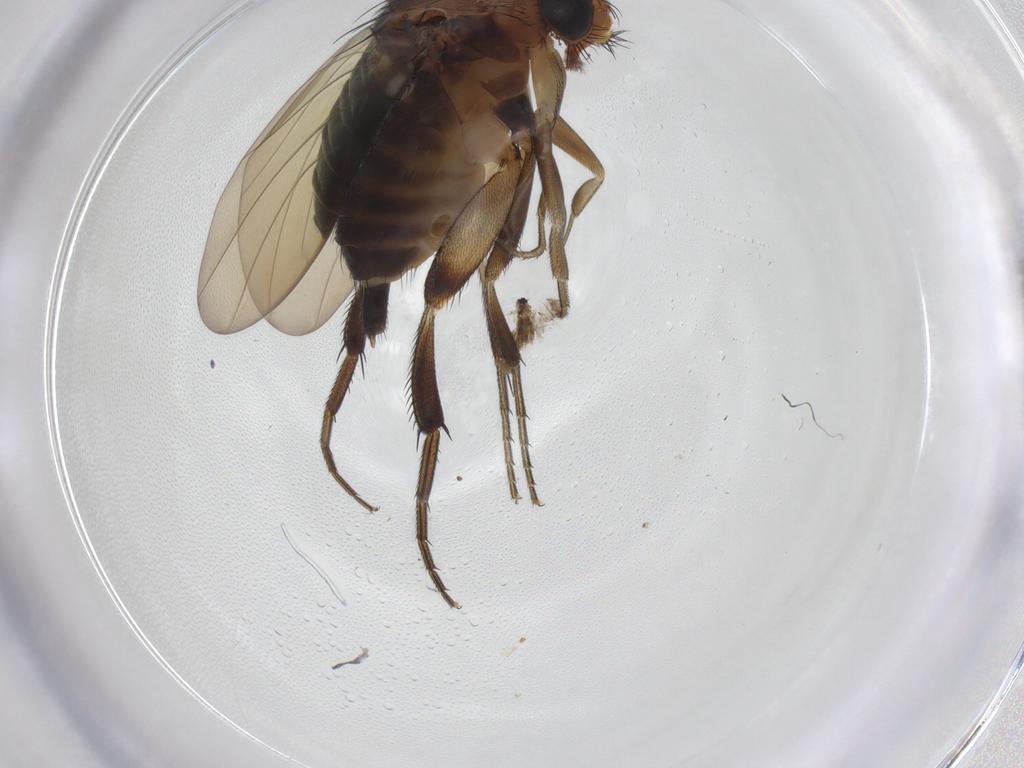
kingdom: Animalia
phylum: Arthropoda
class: Insecta
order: Diptera
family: Phoridae
